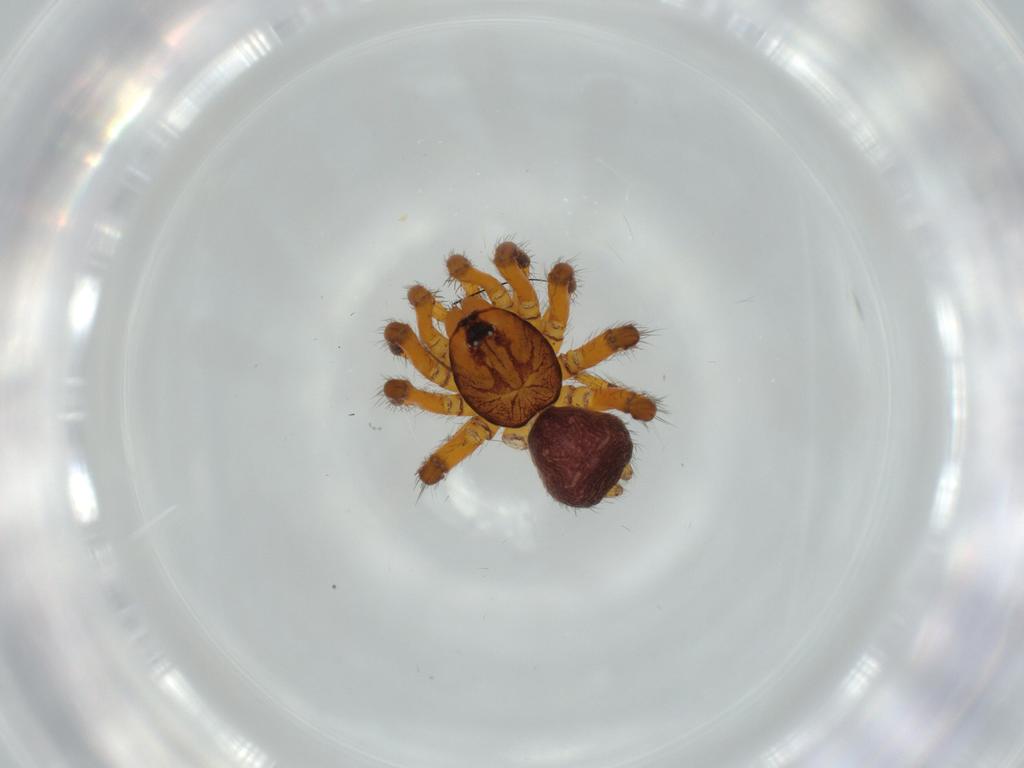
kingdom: Animalia
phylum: Arthropoda
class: Arachnida
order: Araneae
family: Theraphosidae
